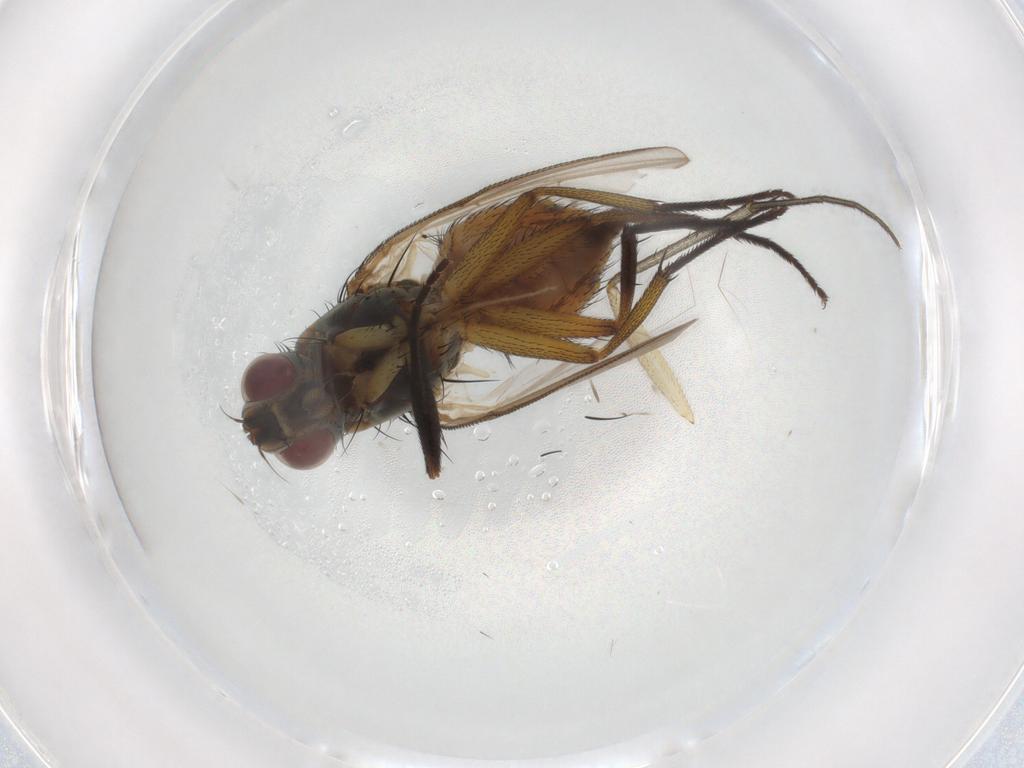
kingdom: Animalia
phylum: Arthropoda
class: Insecta
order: Diptera
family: Muscidae
